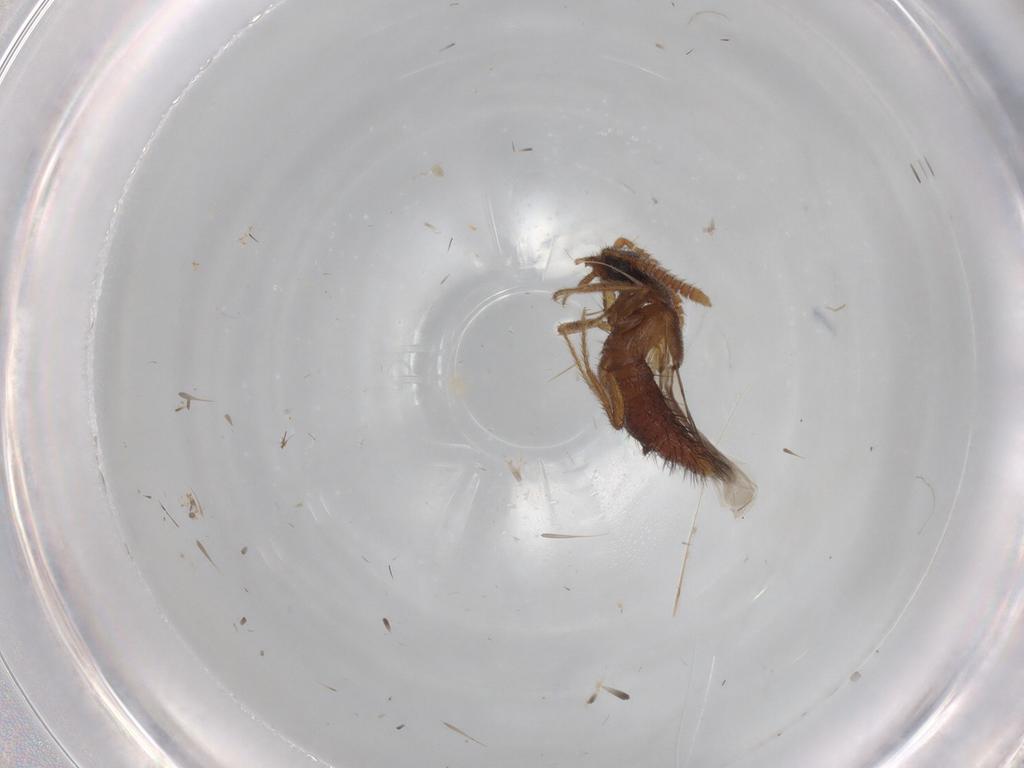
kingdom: Animalia
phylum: Arthropoda
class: Insecta
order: Coleoptera
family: Staphylinidae
